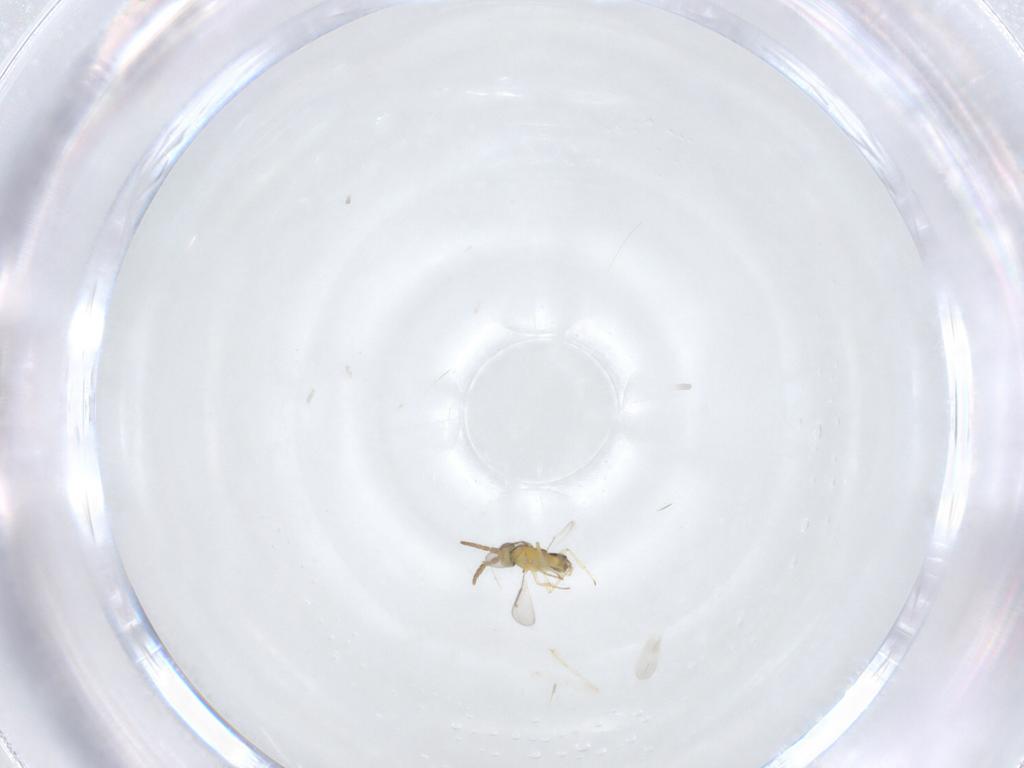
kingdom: Animalia
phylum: Arthropoda
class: Insecta
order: Hymenoptera
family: Aphelinidae
